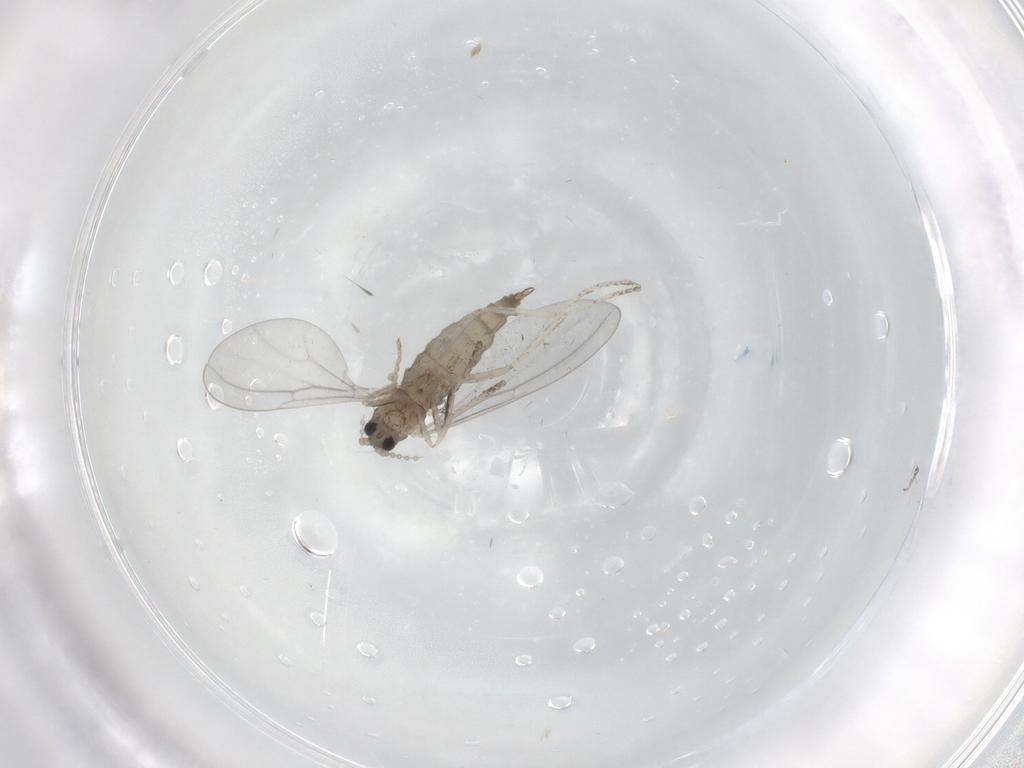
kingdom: Animalia
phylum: Arthropoda
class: Insecta
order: Diptera
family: Cecidomyiidae
